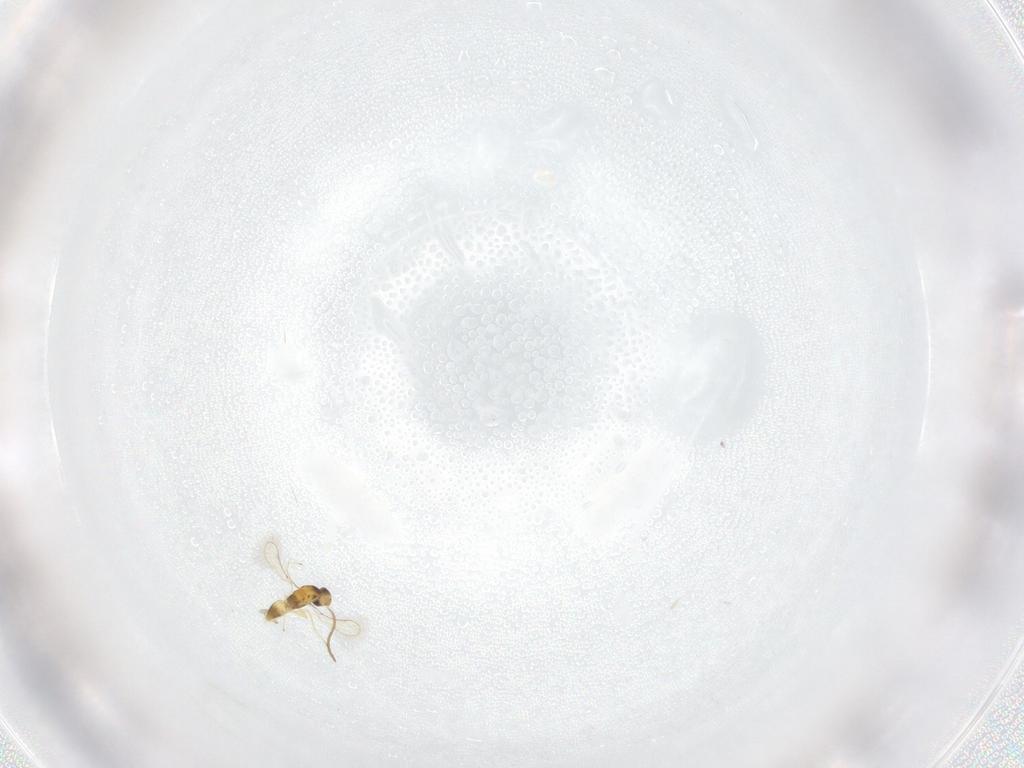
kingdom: Animalia
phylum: Arthropoda
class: Insecta
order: Hymenoptera
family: Mymaridae
